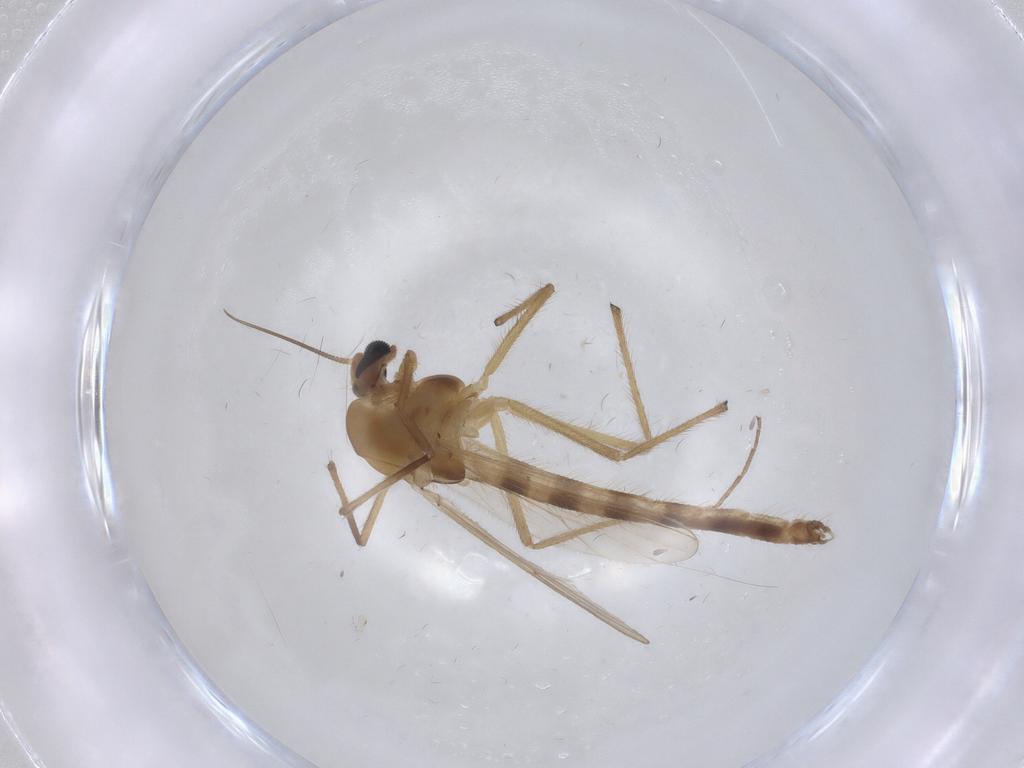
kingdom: Animalia
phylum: Arthropoda
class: Insecta
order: Diptera
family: Chironomidae
